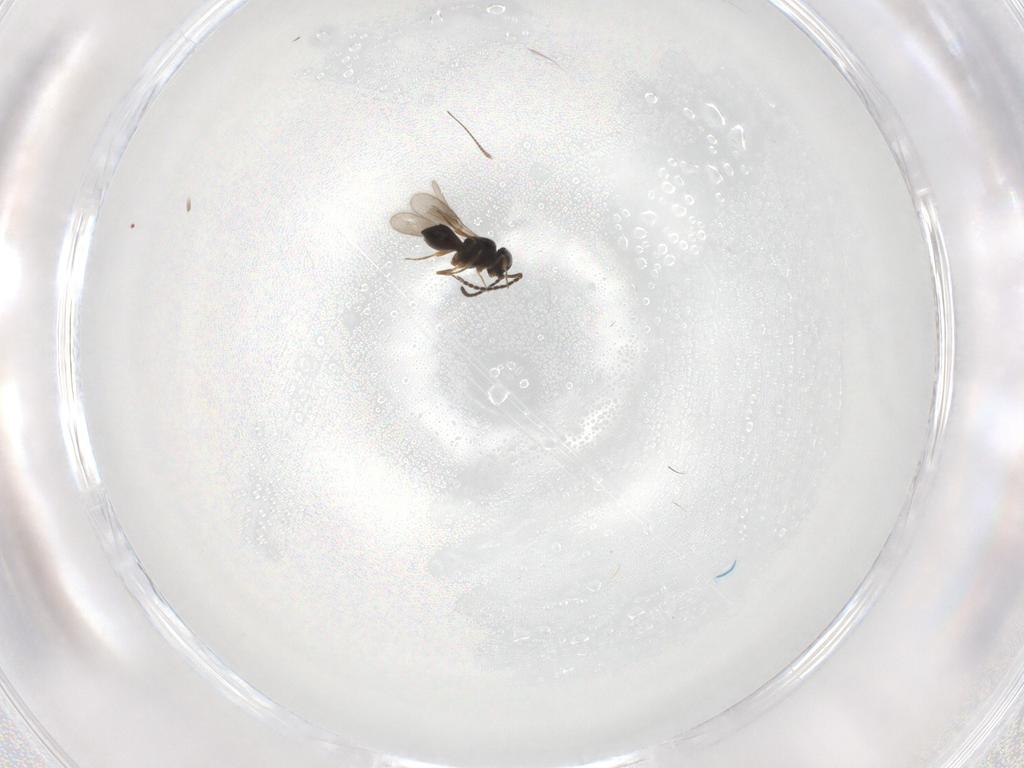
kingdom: Animalia
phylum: Arthropoda
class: Insecta
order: Hymenoptera
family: Scelionidae
